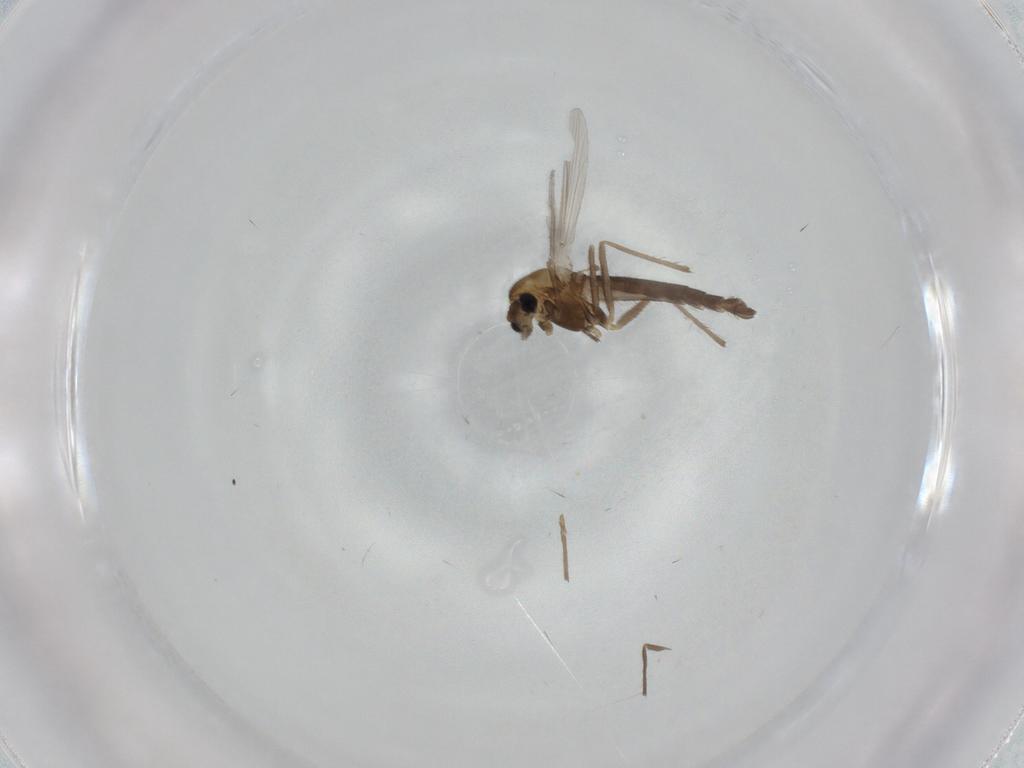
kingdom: Animalia
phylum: Arthropoda
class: Insecta
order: Diptera
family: Chironomidae
